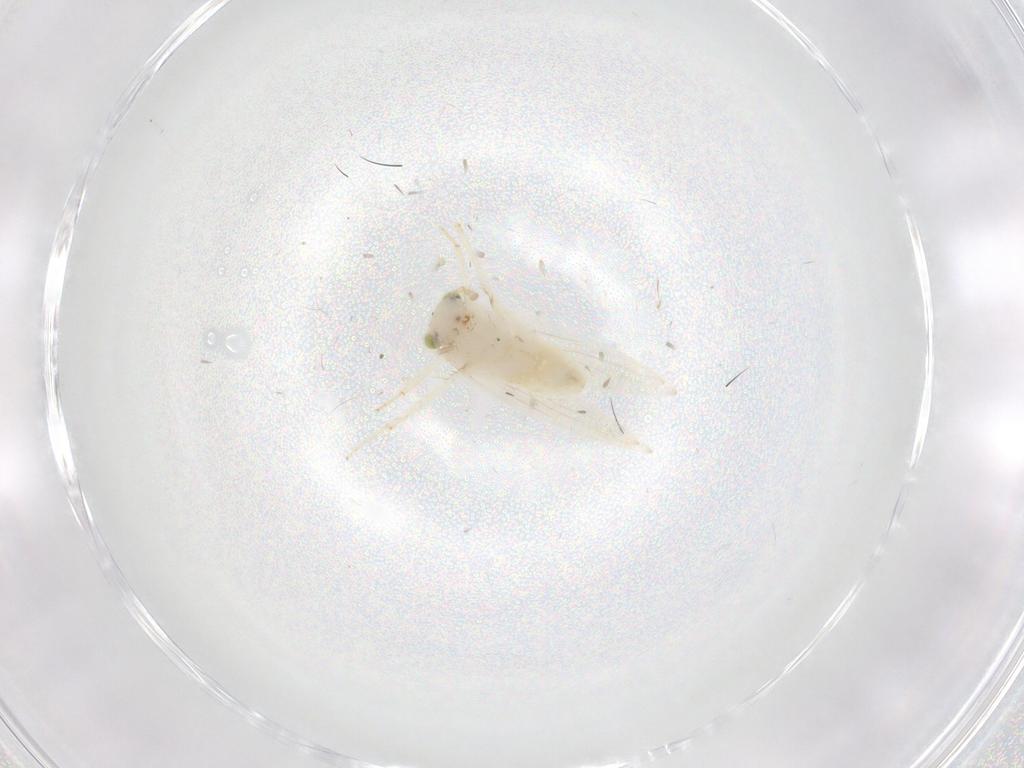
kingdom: Animalia
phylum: Arthropoda
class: Insecta
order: Psocodea
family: Lepidopsocidae
